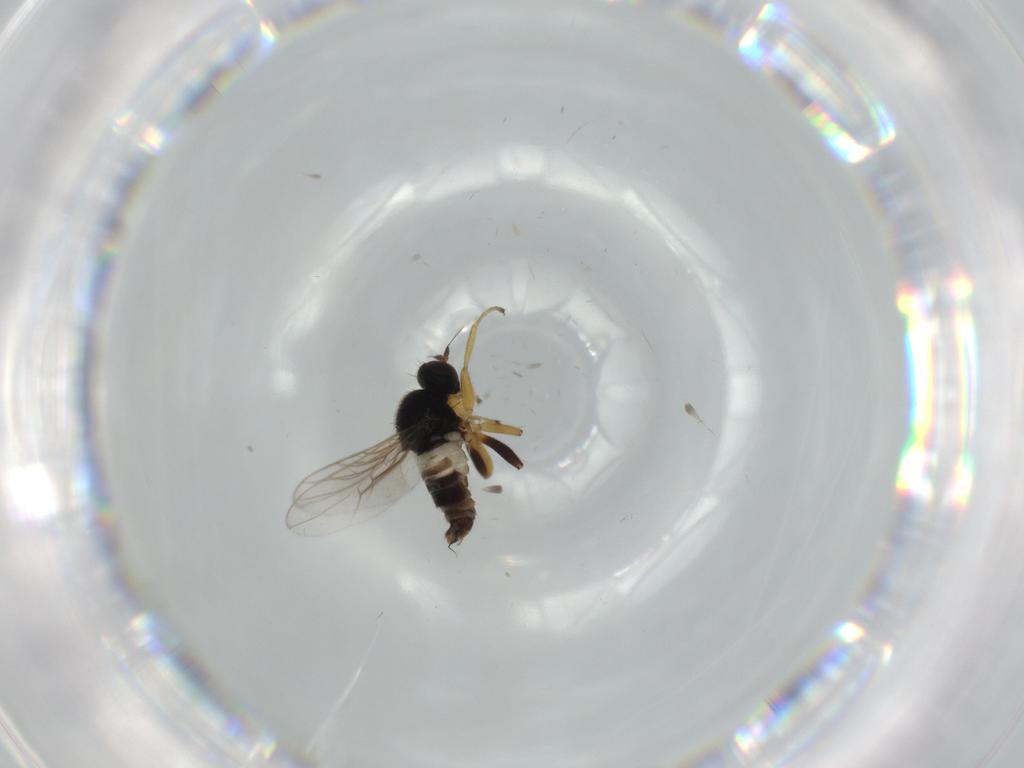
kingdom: Animalia
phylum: Arthropoda
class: Insecta
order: Diptera
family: Hybotidae
